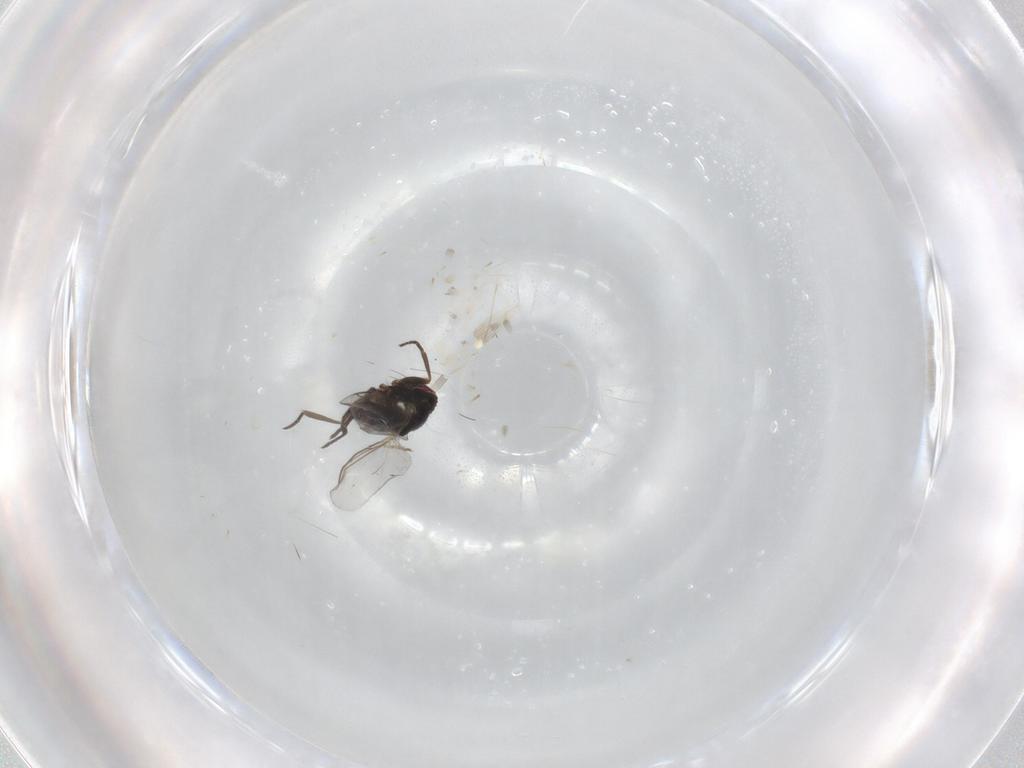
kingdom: Animalia
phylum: Arthropoda
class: Insecta
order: Diptera
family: Agromyzidae
